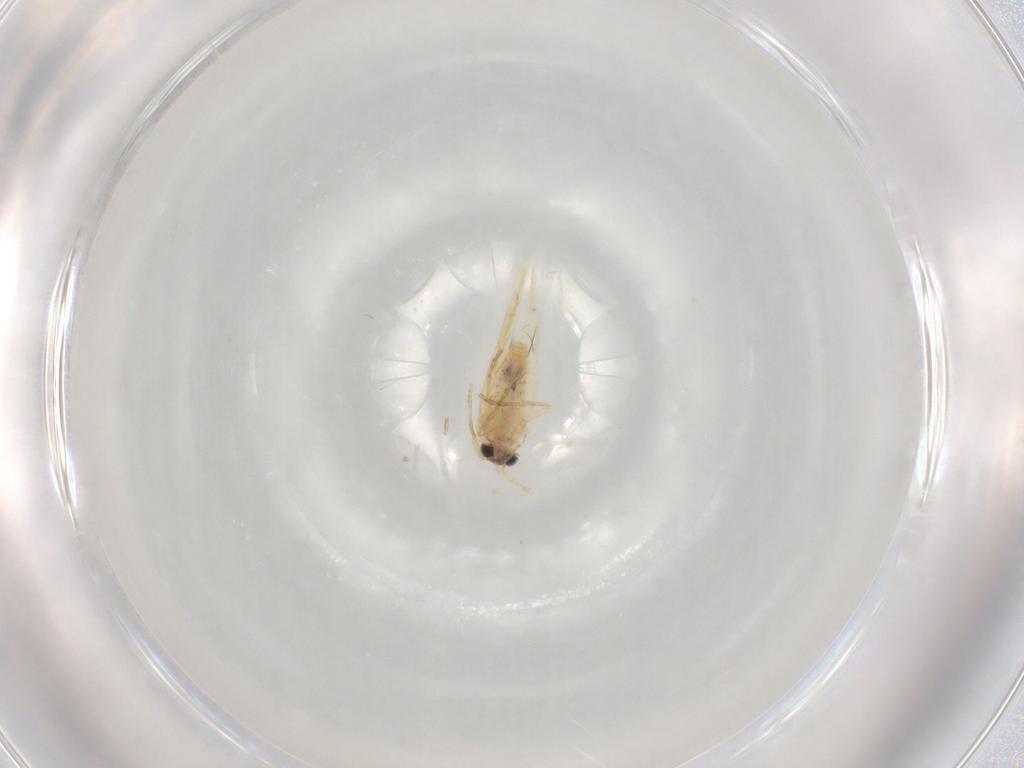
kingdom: Animalia
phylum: Arthropoda
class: Insecta
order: Lepidoptera
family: Nepticulidae
